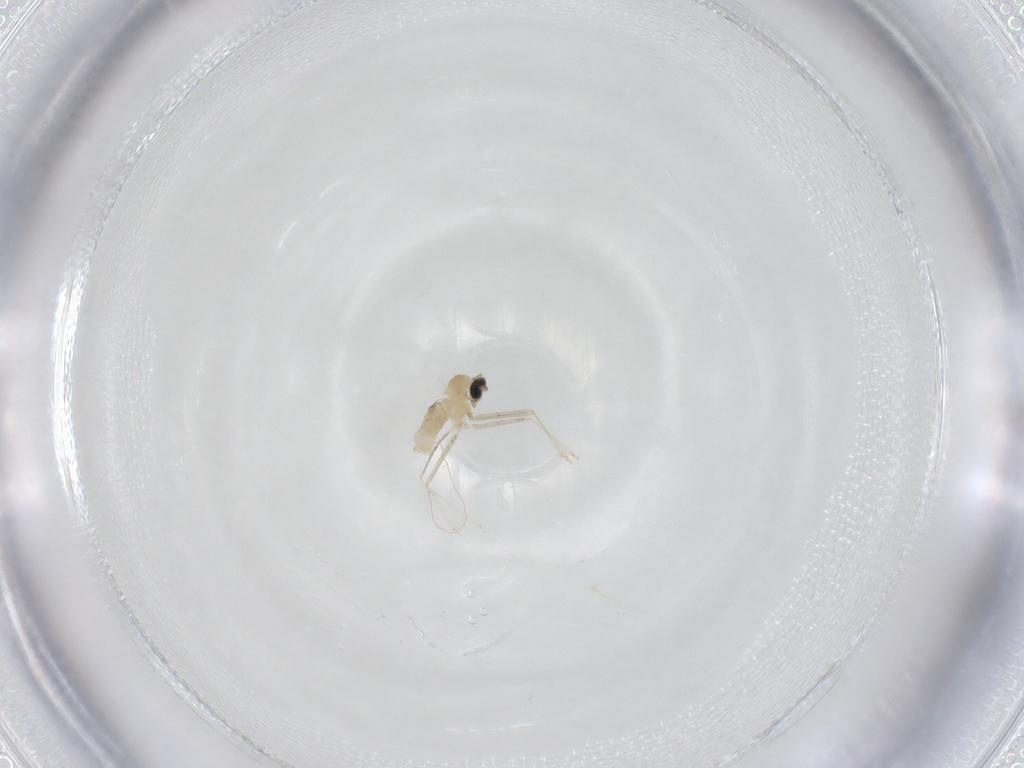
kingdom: Animalia
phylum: Arthropoda
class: Insecta
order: Diptera
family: Cecidomyiidae
